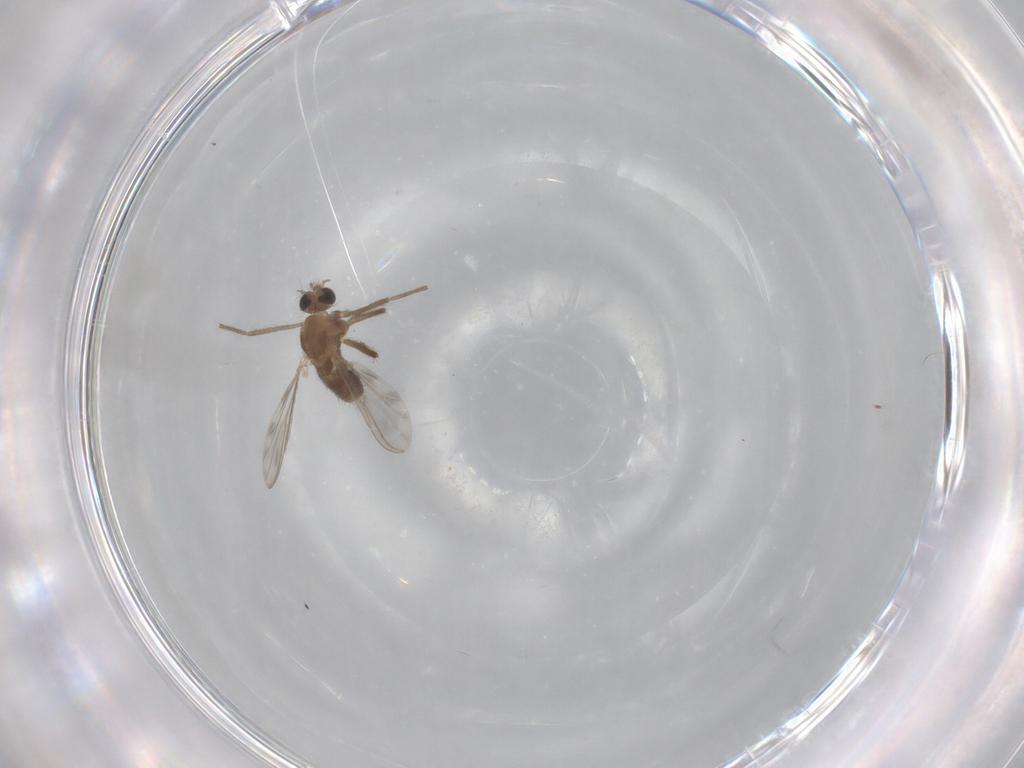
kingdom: Animalia
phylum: Arthropoda
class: Insecta
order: Diptera
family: Chironomidae
